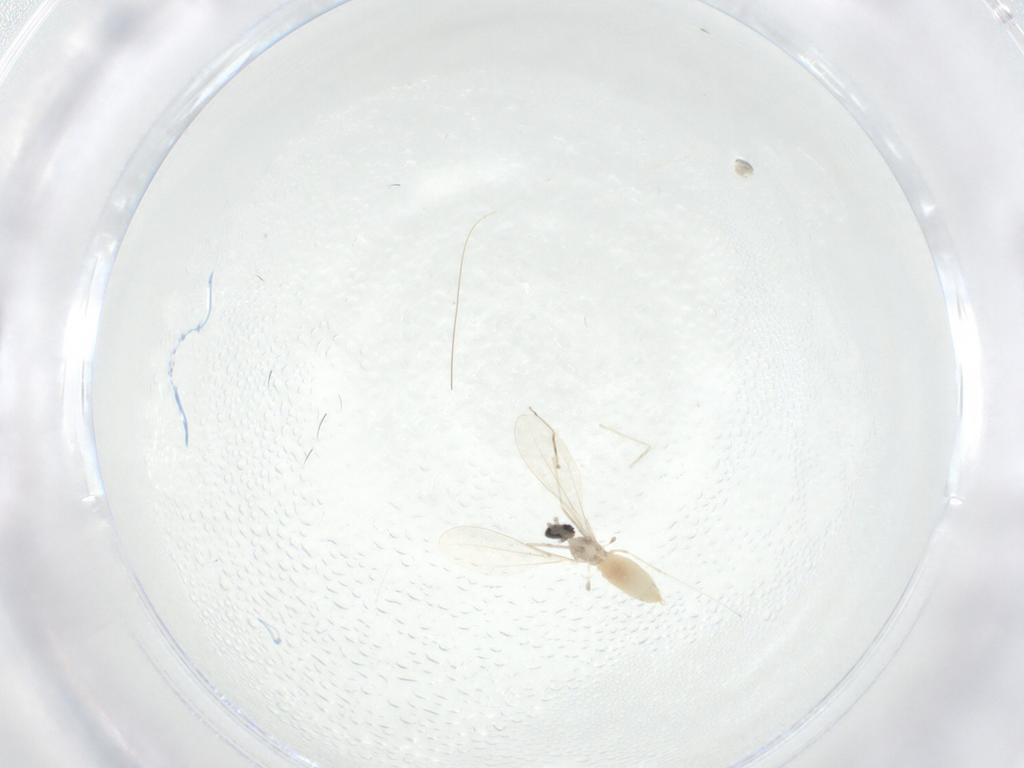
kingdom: Animalia
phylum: Arthropoda
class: Insecta
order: Diptera
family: Cecidomyiidae
